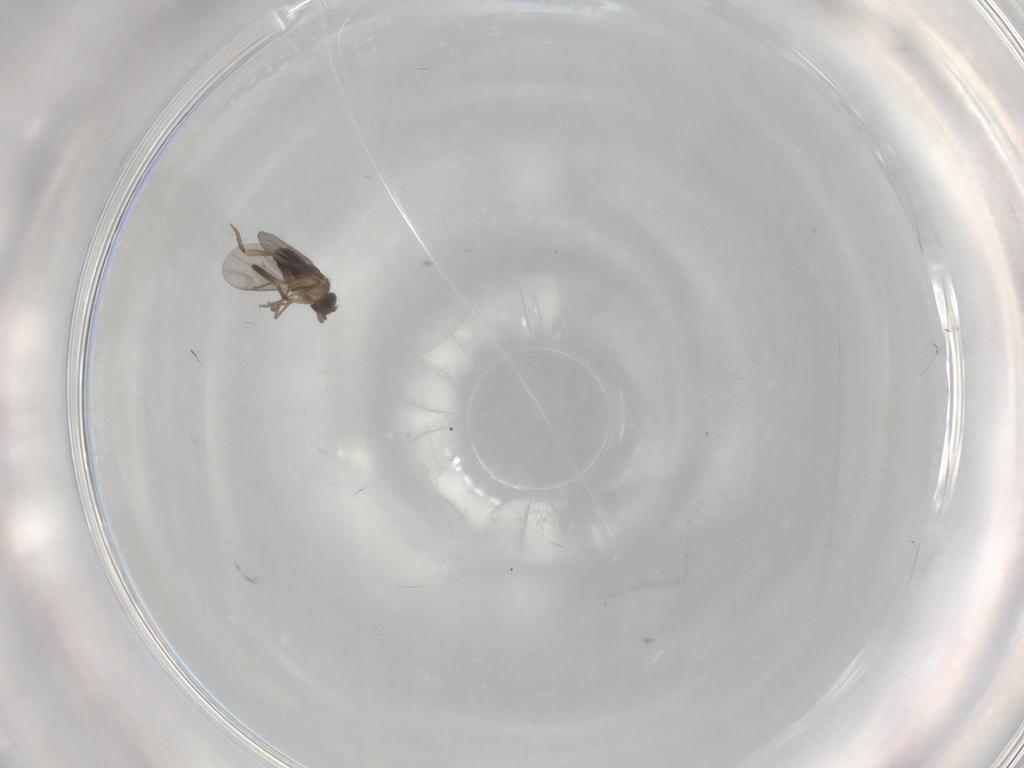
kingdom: Animalia
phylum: Arthropoda
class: Insecta
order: Diptera
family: Phoridae
